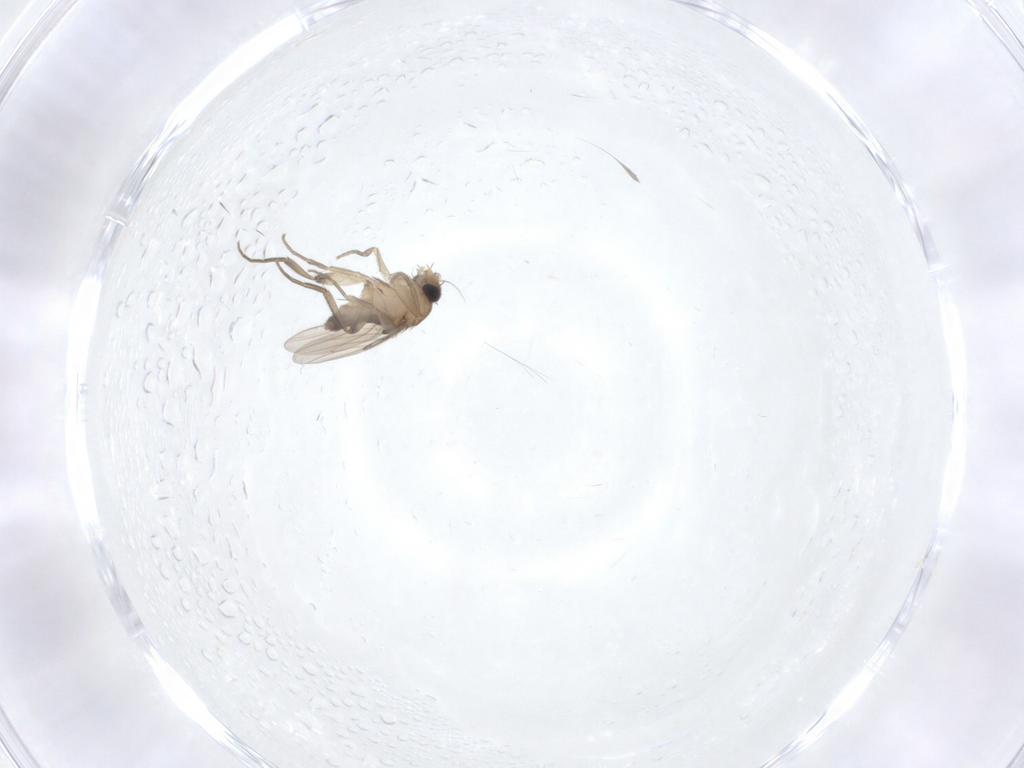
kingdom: Animalia
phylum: Arthropoda
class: Insecta
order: Diptera
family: Phoridae
